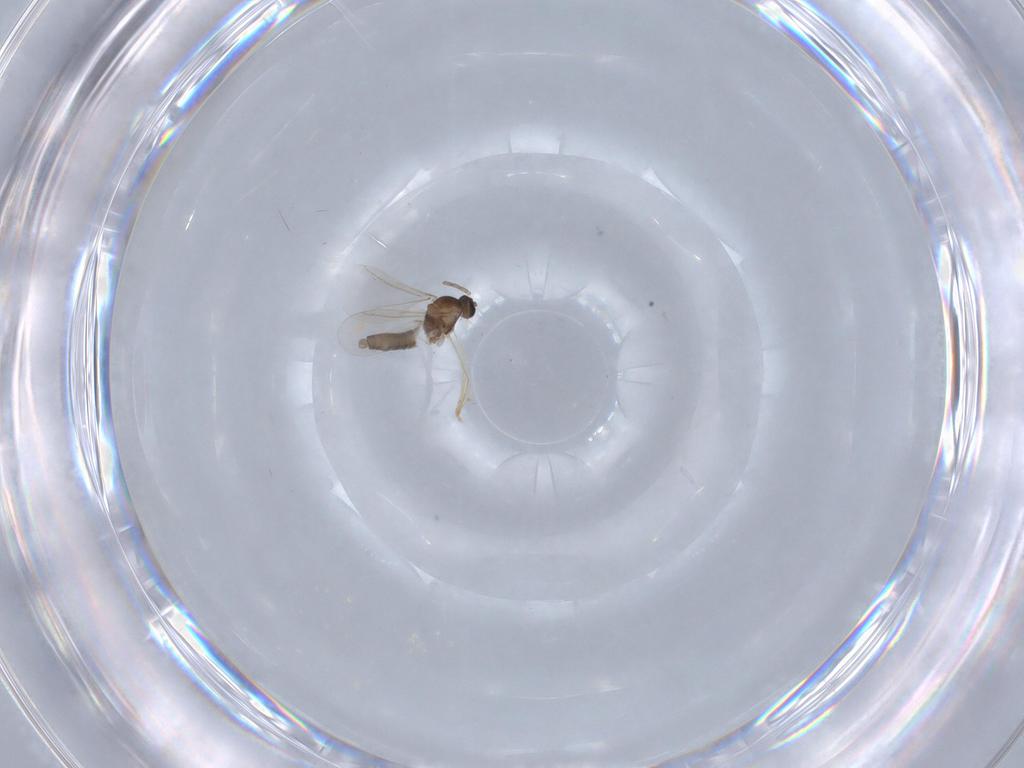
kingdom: Animalia
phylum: Arthropoda
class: Insecta
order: Diptera
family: Cecidomyiidae
